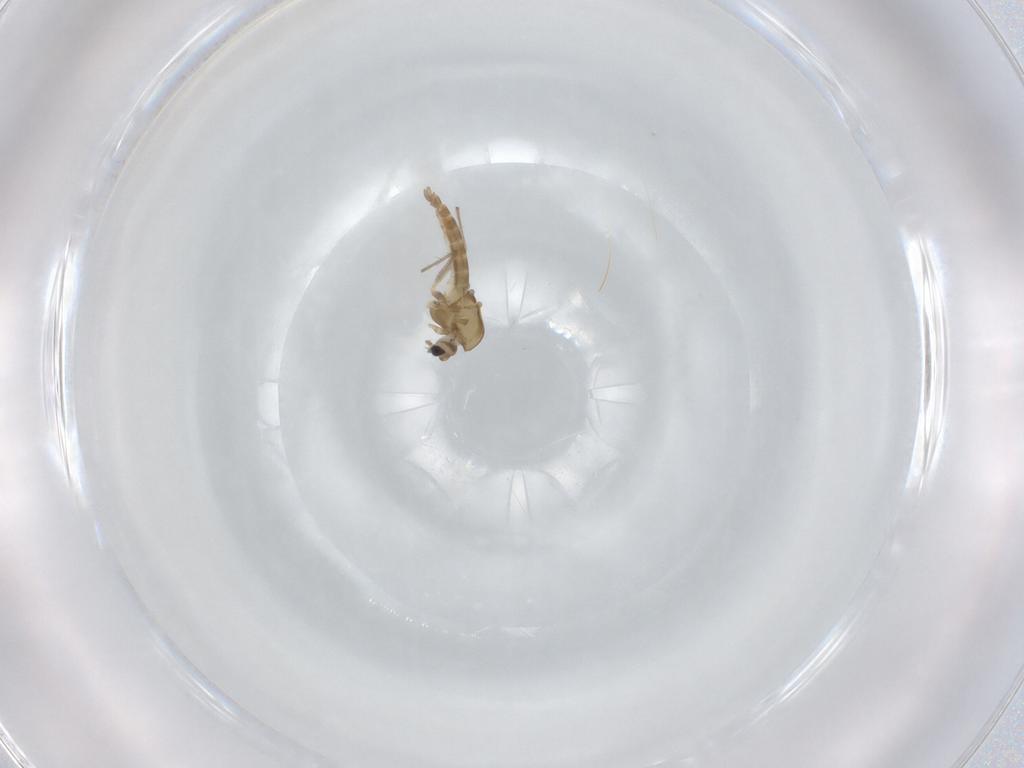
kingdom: Animalia
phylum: Arthropoda
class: Insecta
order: Diptera
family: Chironomidae
